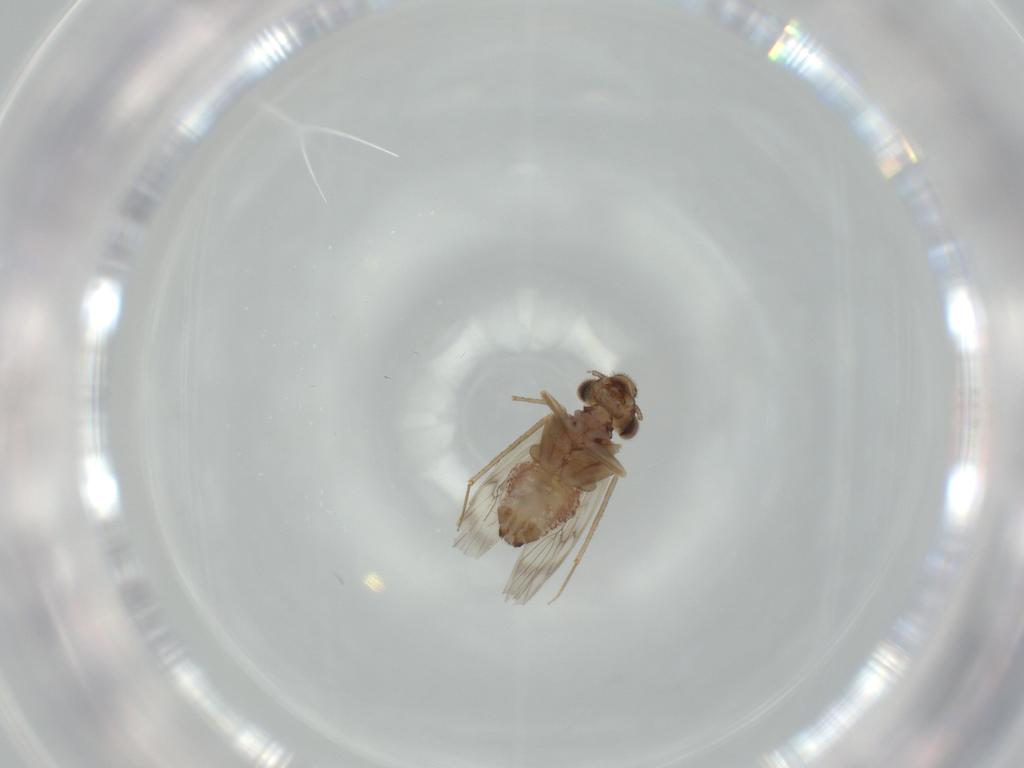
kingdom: Animalia
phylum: Arthropoda
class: Insecta
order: Psocodea
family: Lepidopsocidae
